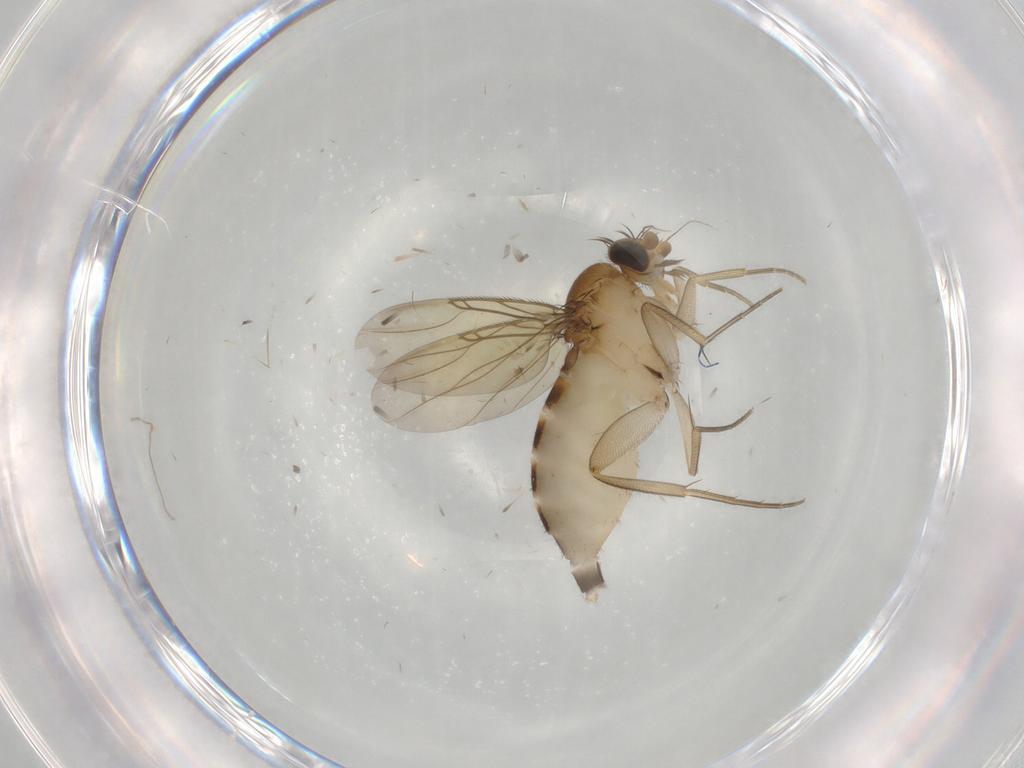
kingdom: Animalia
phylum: Arthropoda
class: Insecta
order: Diptera
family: Phoridae
